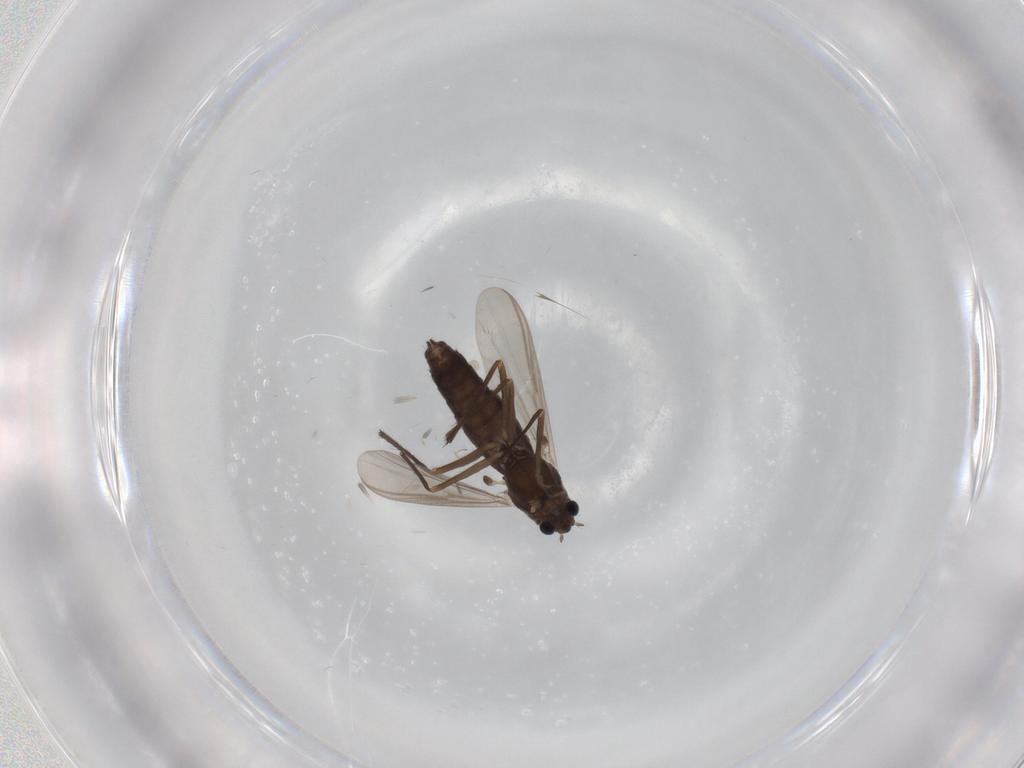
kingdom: Animalia
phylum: Arthropoda
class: Insecta
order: Diptera
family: Chironomidae
